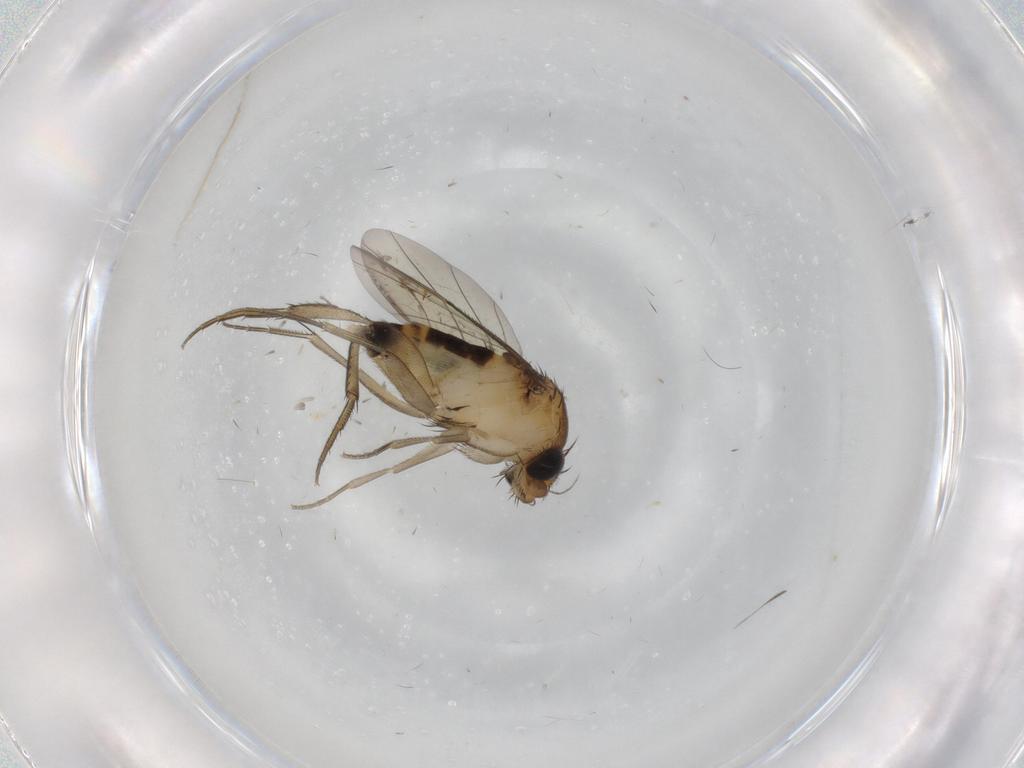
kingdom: Animalia
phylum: Arthropoda
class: Insecta
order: Diptera
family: Phoridae
